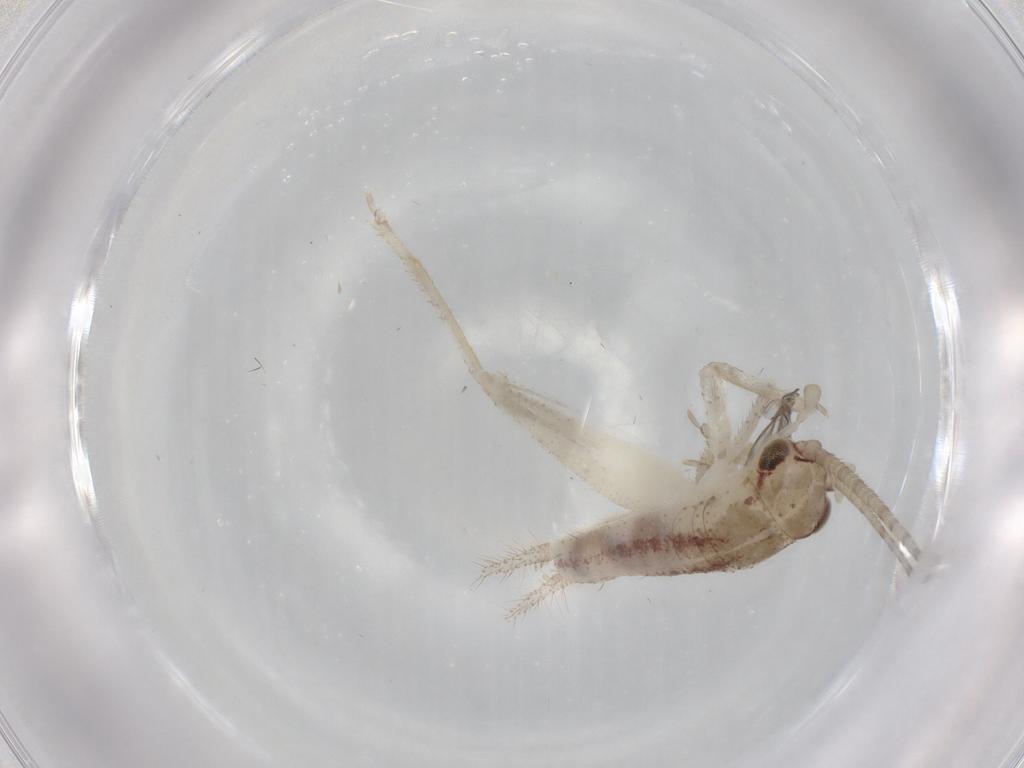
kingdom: Animalia
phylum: Arthropoda
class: Insecta
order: Orthoptera
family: Gryllidae
